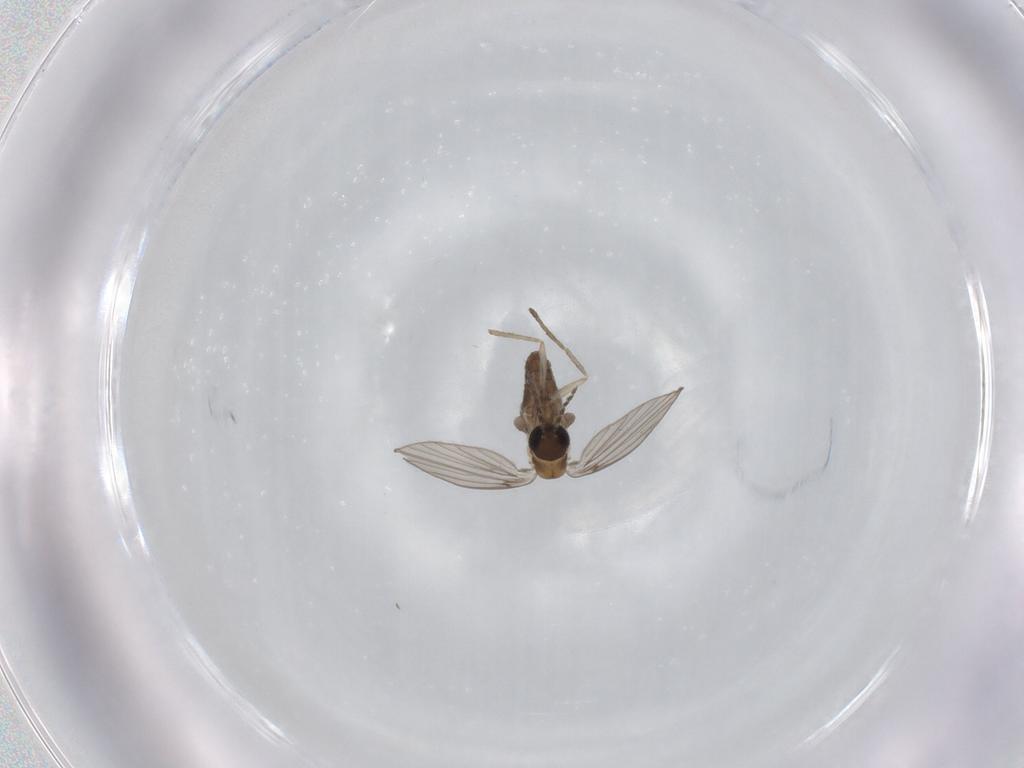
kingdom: Animalia
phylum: Arthropoda
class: Insecta
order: Diptera
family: Psychodidae
